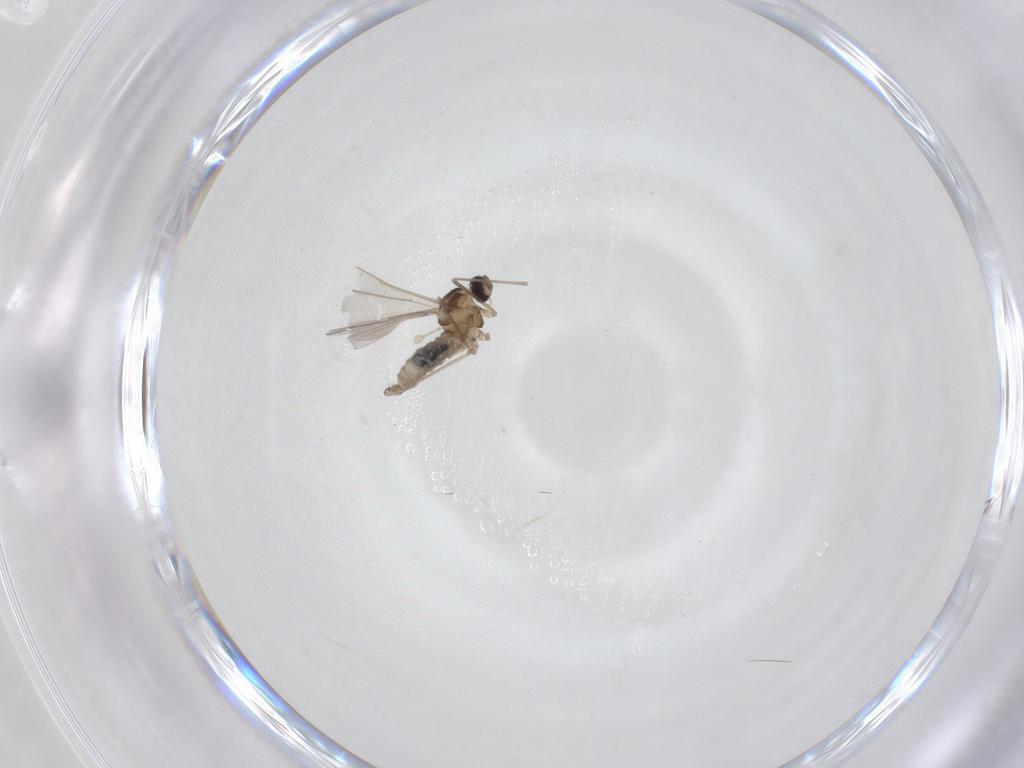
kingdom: Animalia
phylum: Arthropoda
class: Insecta
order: Diptera
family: Cecidomyiidae
